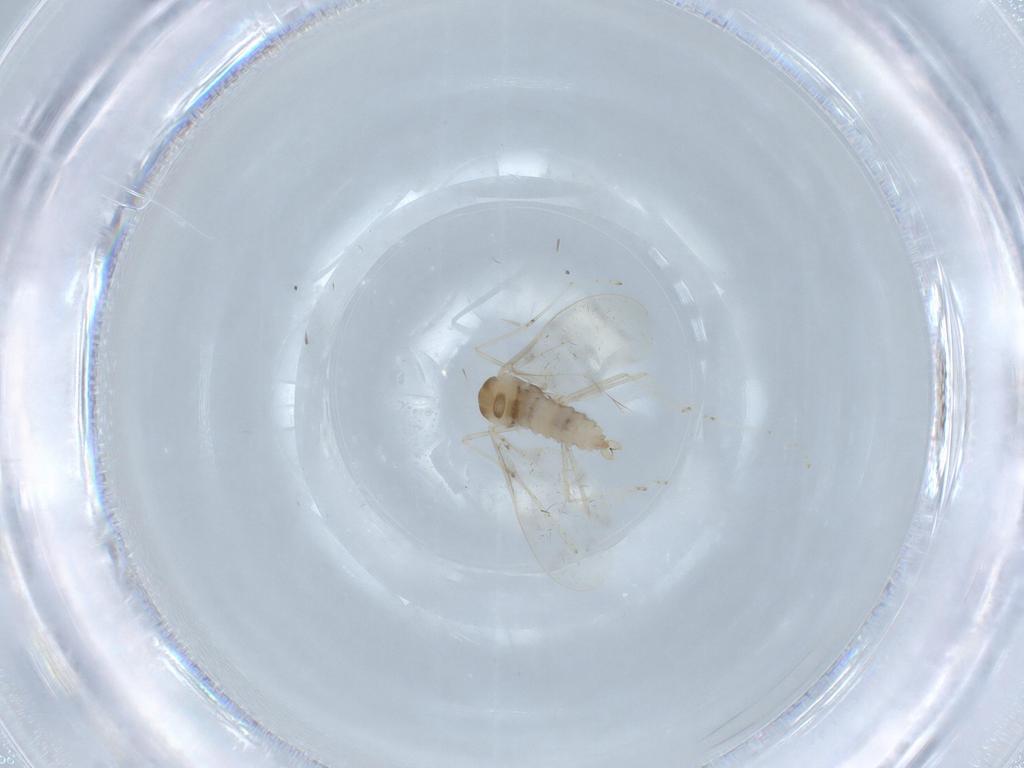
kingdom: Animalia
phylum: Arthropoda
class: Insecta
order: Diptera
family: Cecidomyiidae
